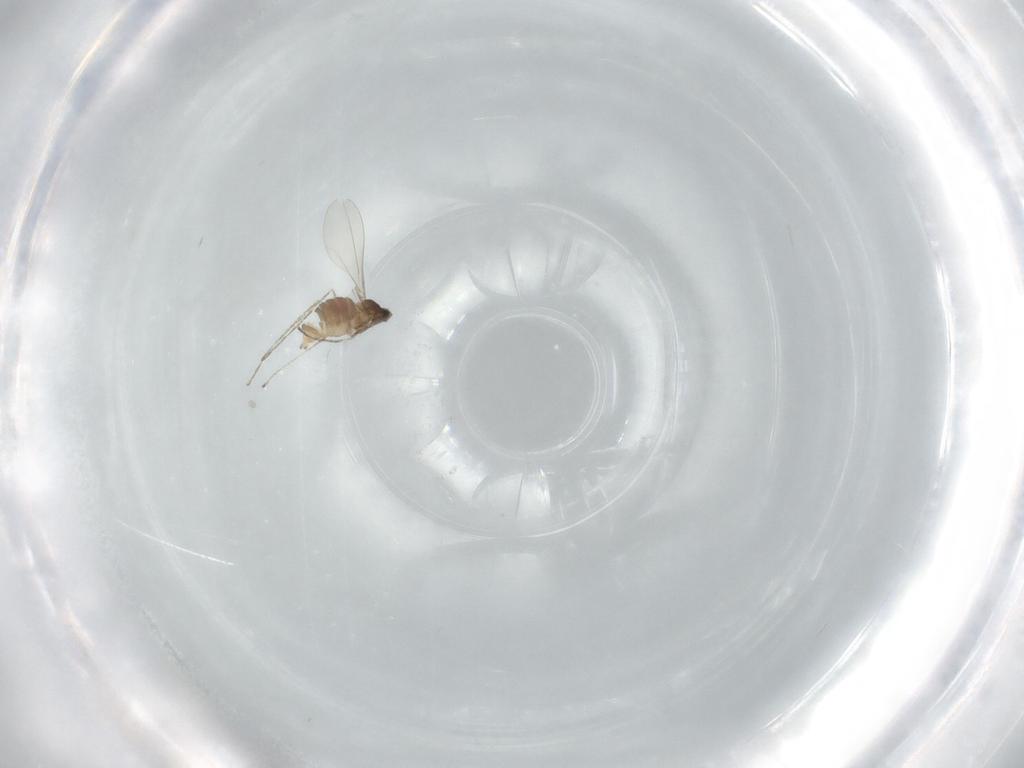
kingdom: Animalia
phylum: Arthropoda
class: Insecta
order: Diptera
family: Cecidomyiidae
